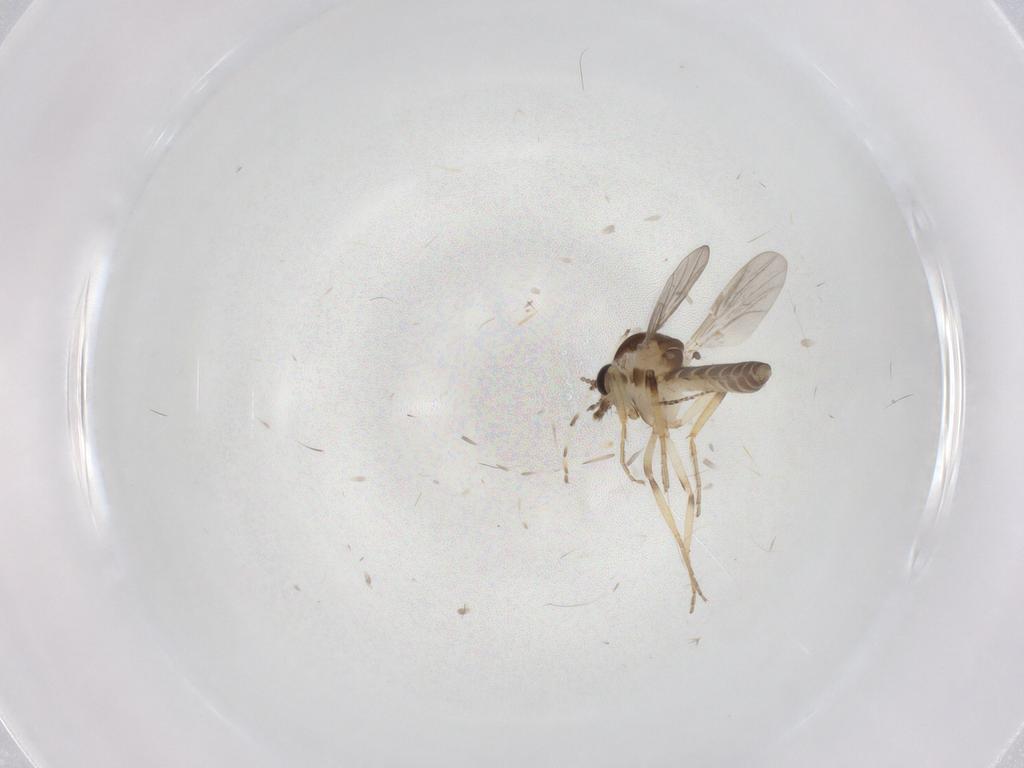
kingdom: Animalia
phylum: Arthropoda
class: Insecta
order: Diptera
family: Ceratopogonidae
